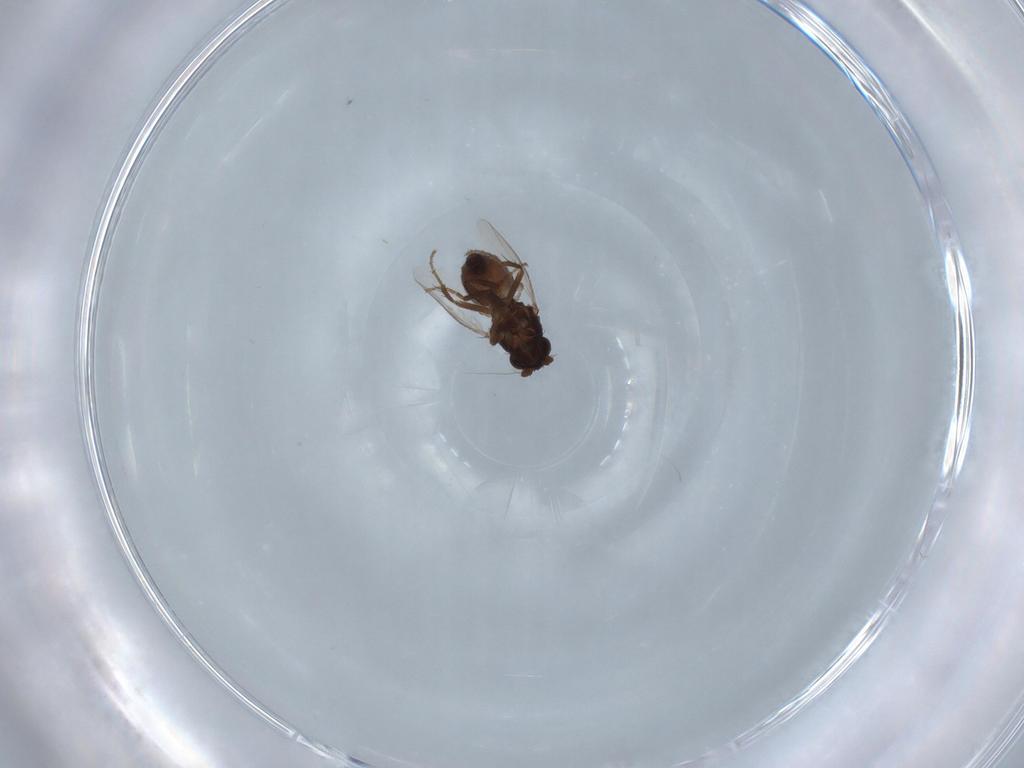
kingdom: Animalia
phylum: Arthropoda
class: Insecta
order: Diptera
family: Sphaeroceridae
